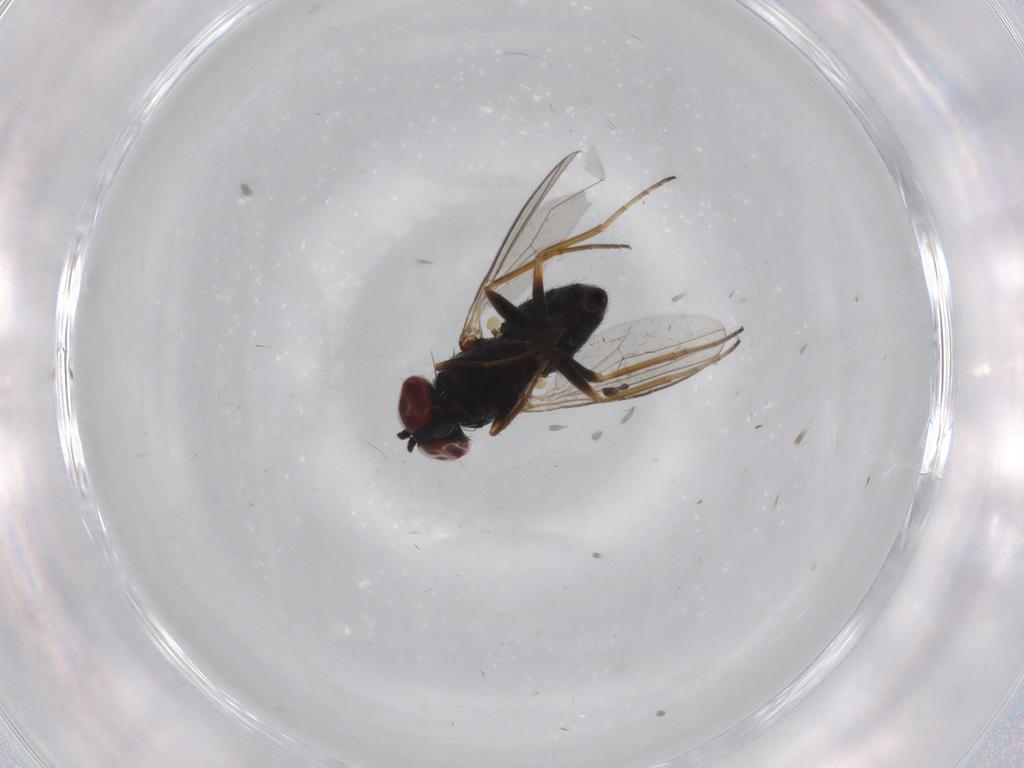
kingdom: Animalia
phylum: Arthropoda
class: Insecta
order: Diptera
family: Dolichopodidae
